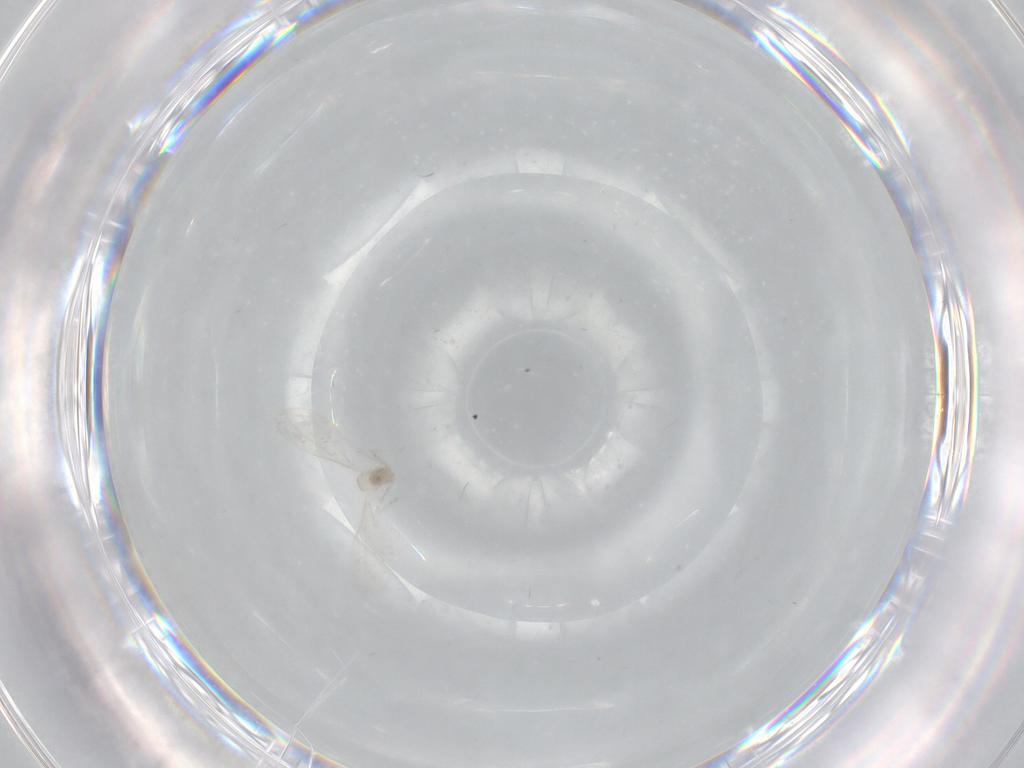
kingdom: Animalia
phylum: Arthropoda
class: Insecta
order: Diptera
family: Cecidomyiidae
